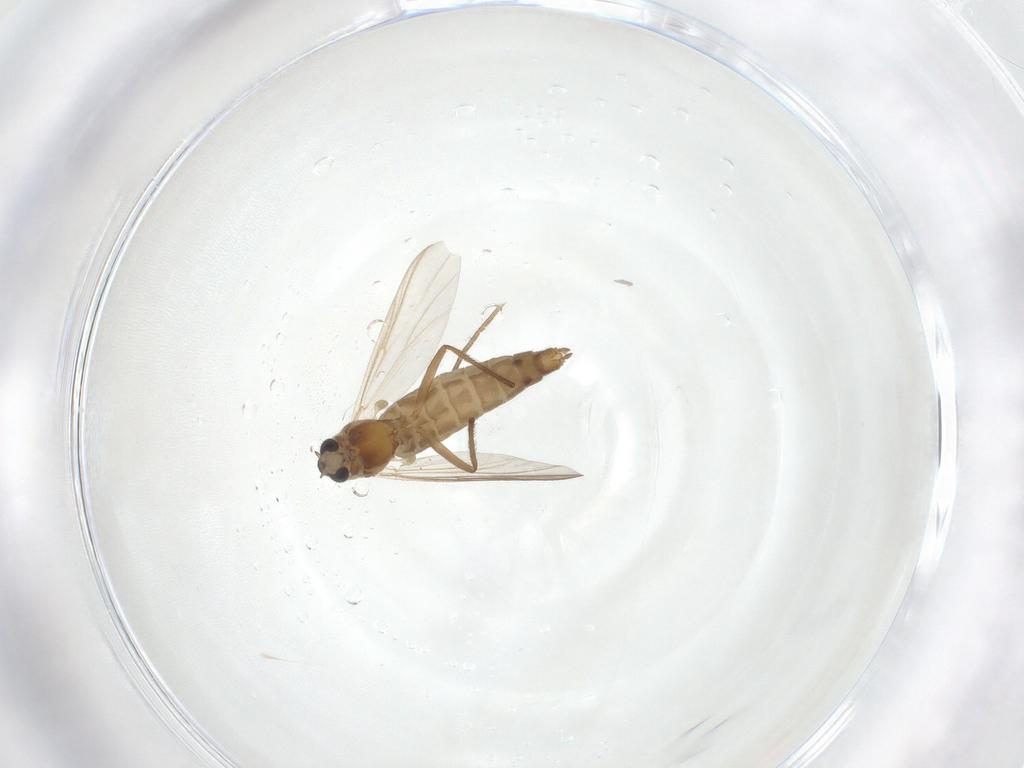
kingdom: Animalia
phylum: Arthropoda
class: Insecta
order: Diptera
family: Chironomidae
